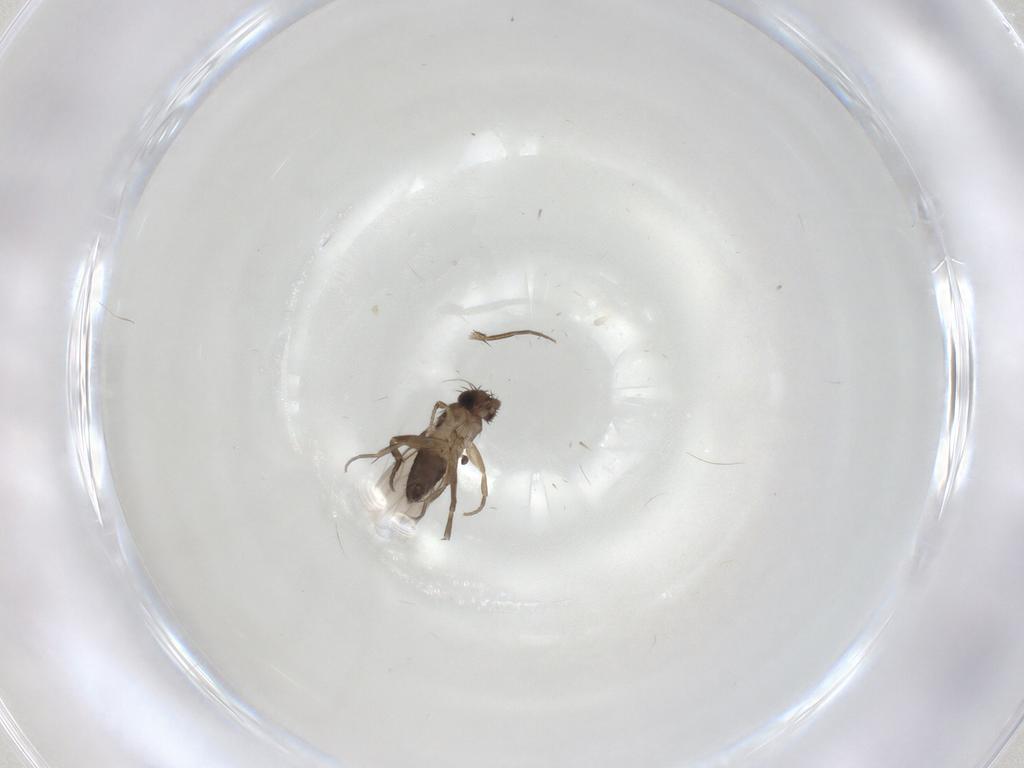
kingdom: Animalia
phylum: Arthropoda
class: Insecta
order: Diptera
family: Phoridae
